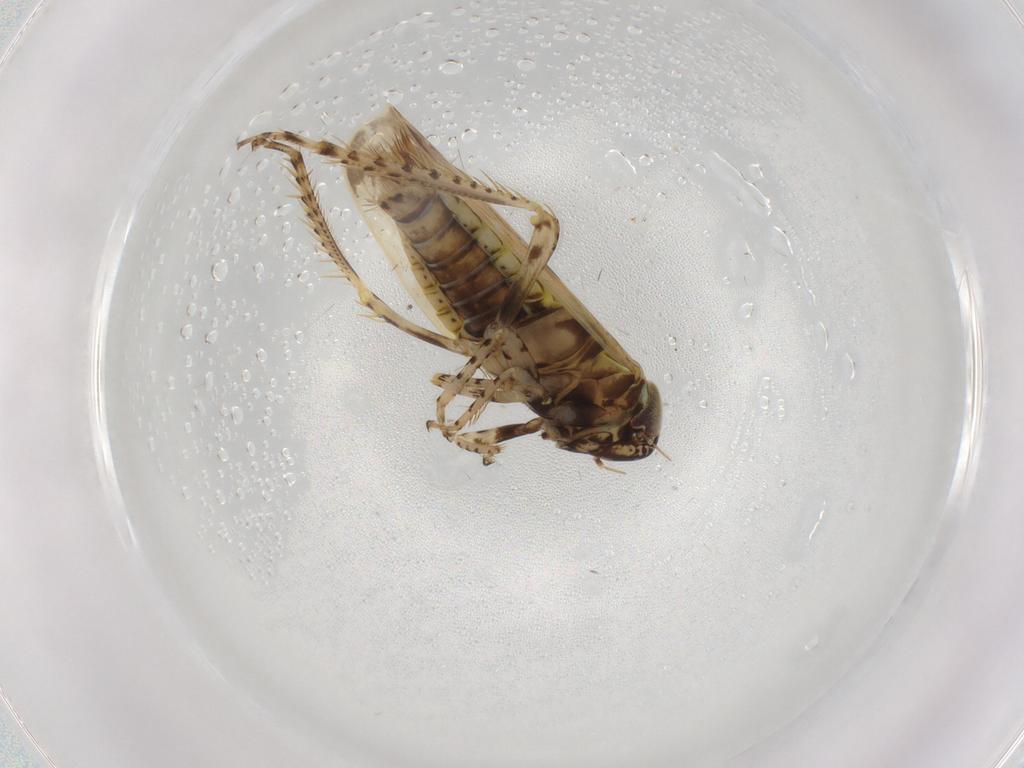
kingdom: Animalia
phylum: Arthropoda
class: Insecta
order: Hemiptera
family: Cicadellidae
